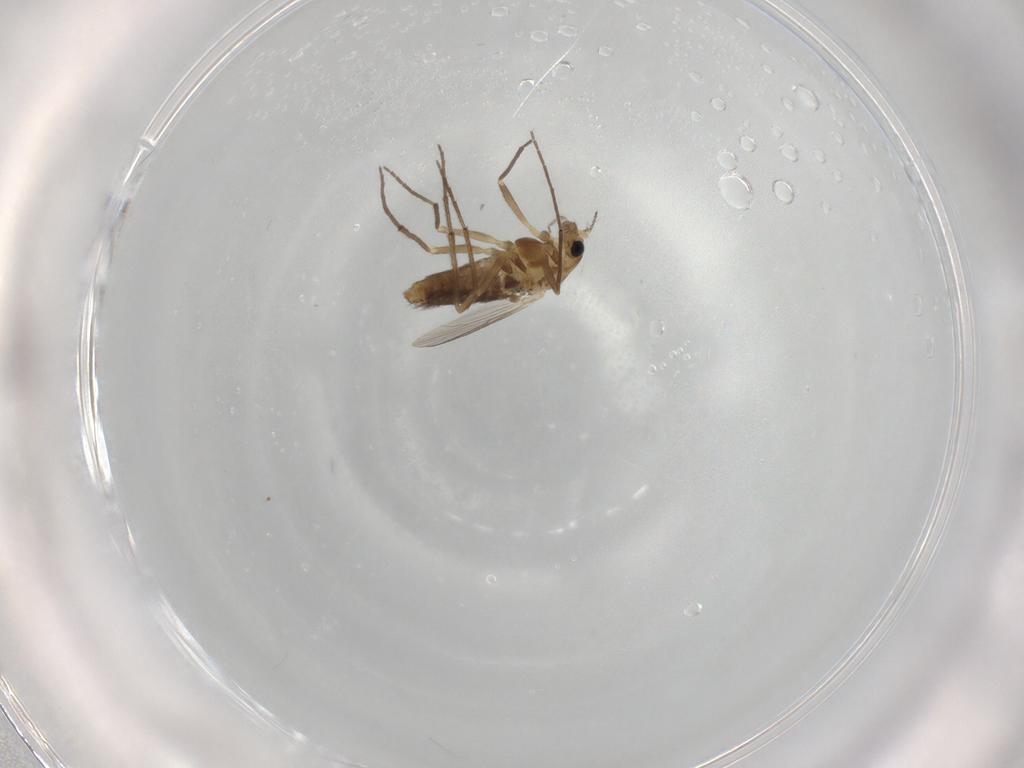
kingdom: Animalia
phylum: Arthropoda
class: Insecta
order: Diptera
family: Chironomidae
